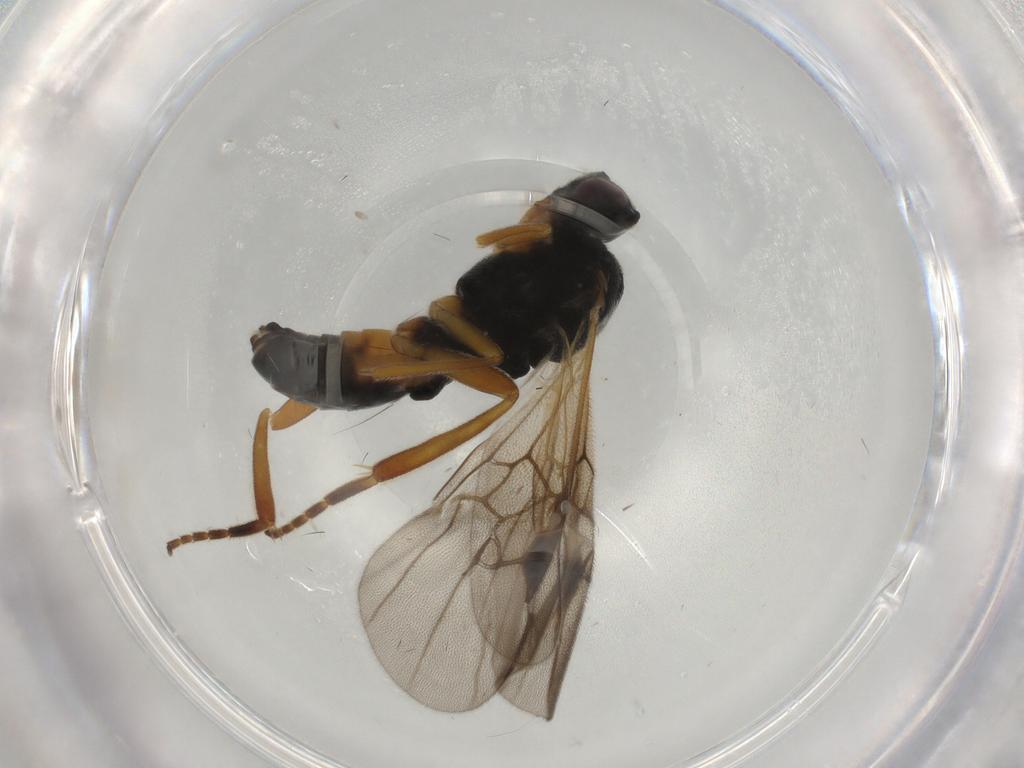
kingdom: Animalia
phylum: Arthropoda
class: Insecta
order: Hymenoptera
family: Braconidae
